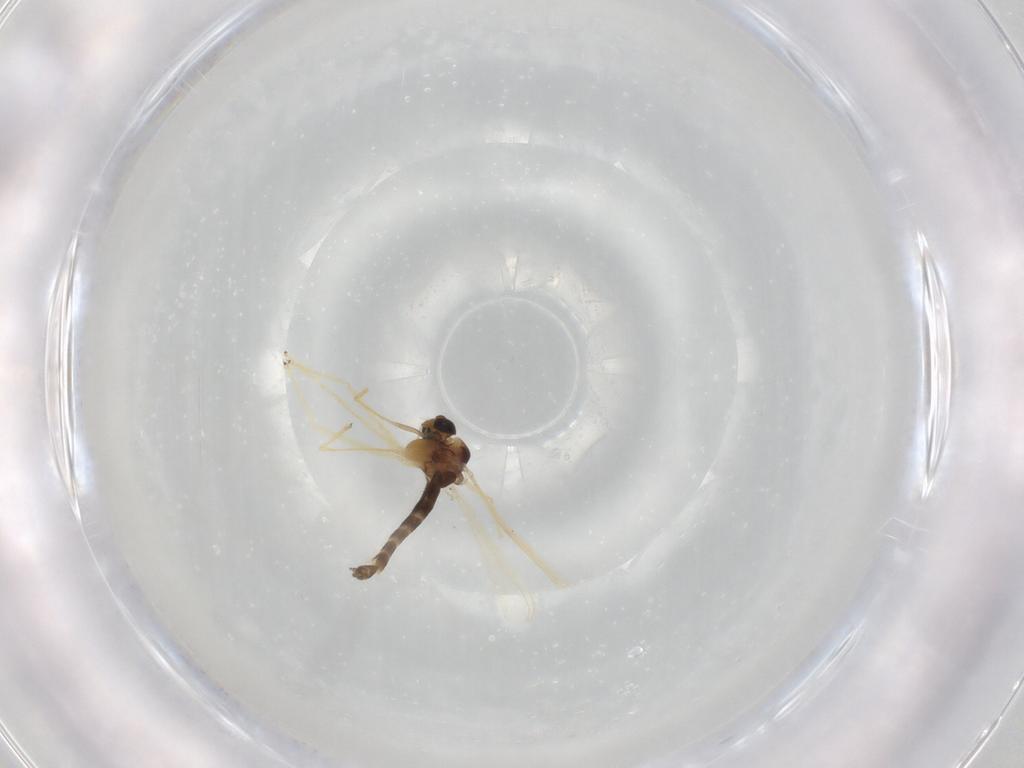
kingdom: Animalia
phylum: Arthropoda
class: Insecta
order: Diptera
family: Chironomidae
